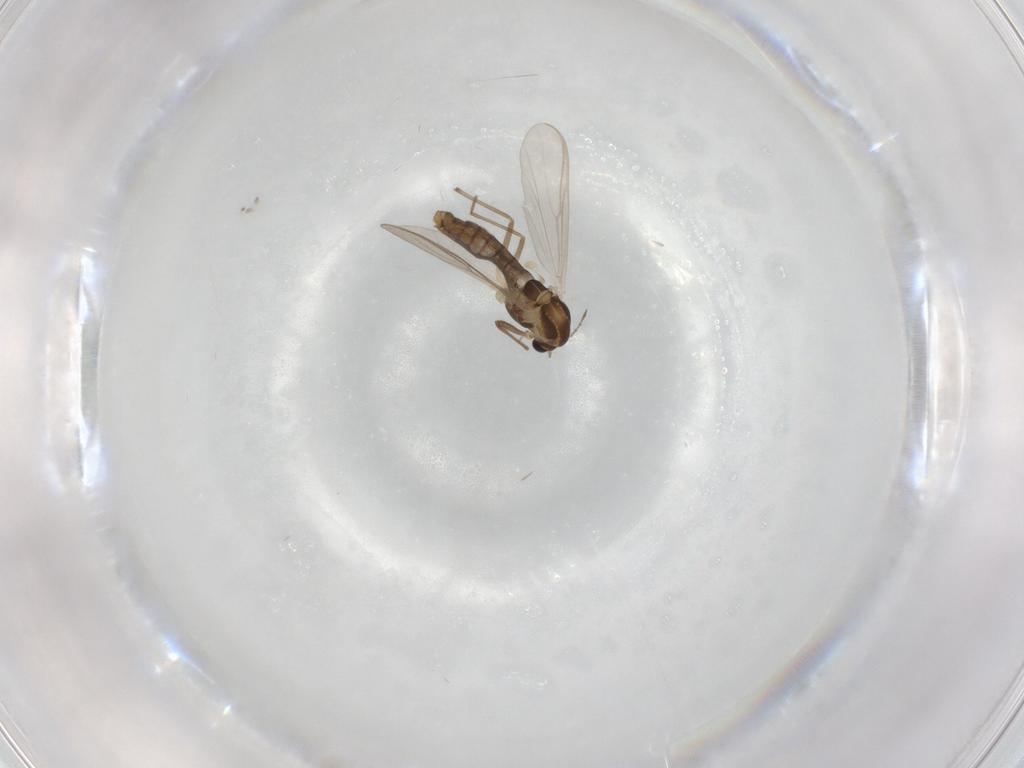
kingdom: Animalia
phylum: Arthropoda
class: Insecta
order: Diptera
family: Chironomidae
